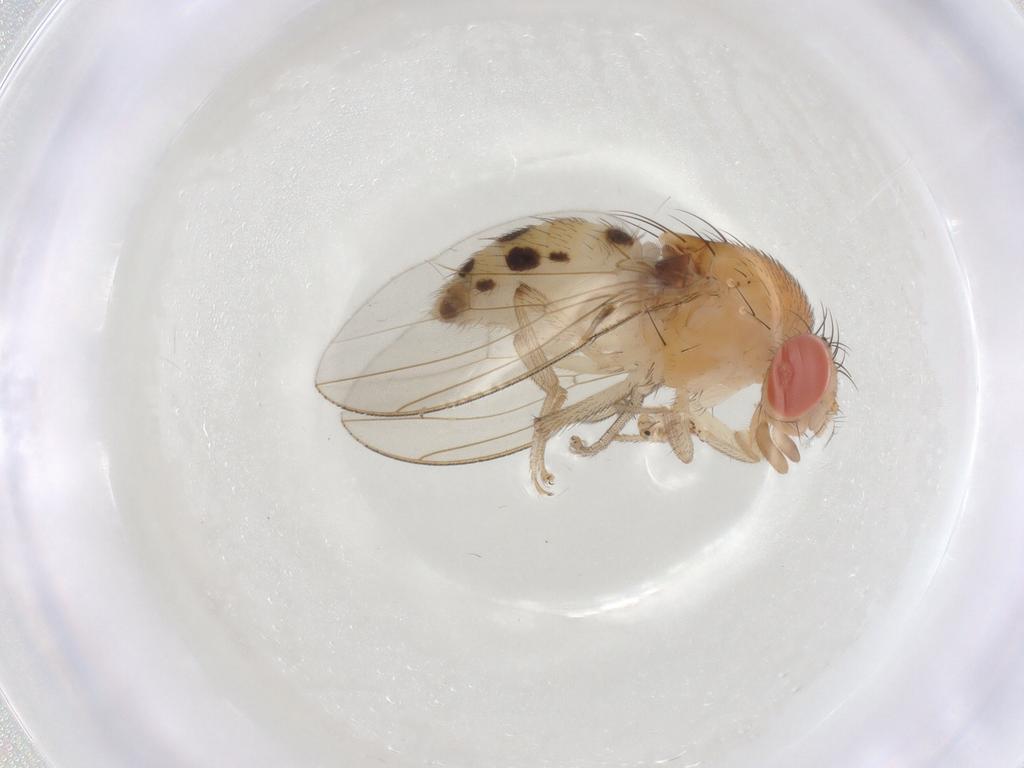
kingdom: Animalia
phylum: Arthropoda
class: Insecta
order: Diptera
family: Drosophilidae
